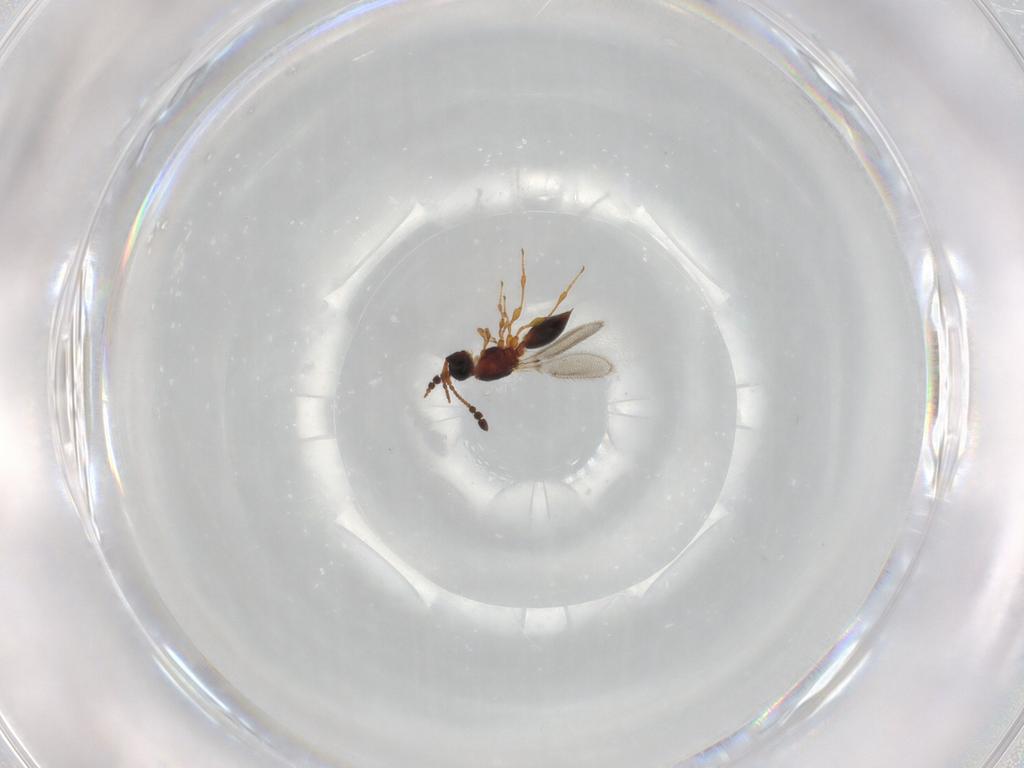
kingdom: Animalia
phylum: Arthropoda
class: Insecta
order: Hymenoptera
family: Diapriidae
